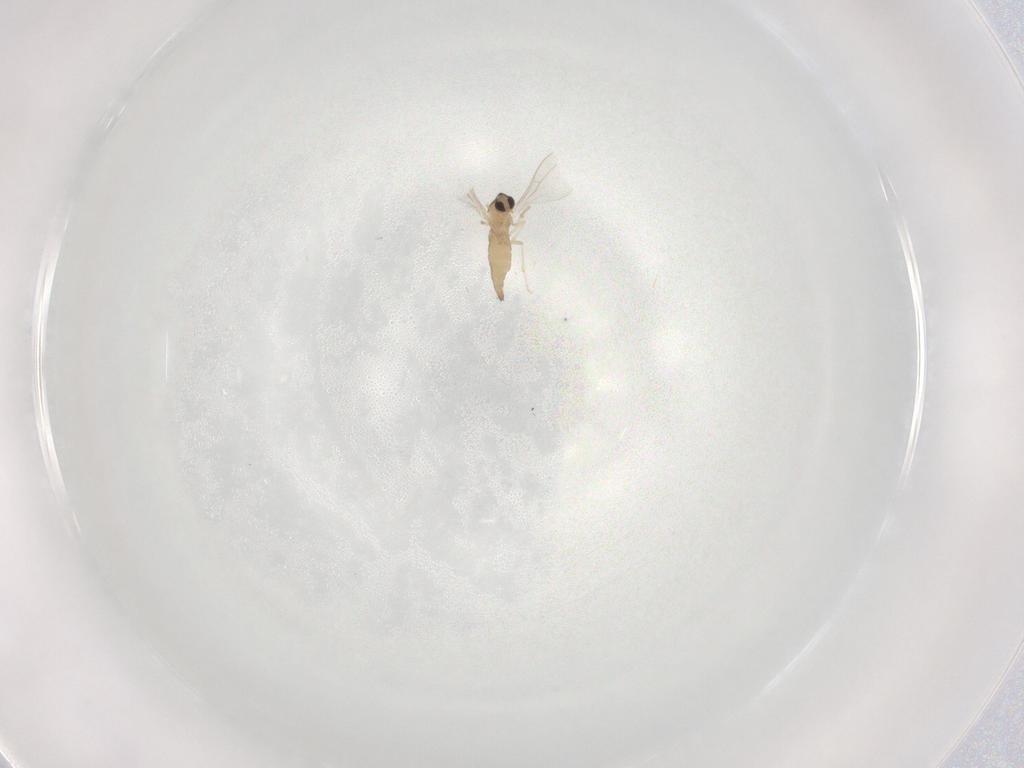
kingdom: Animalia
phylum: Arthropoda
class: Insecta
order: Diptera
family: Cecidomyiidae
